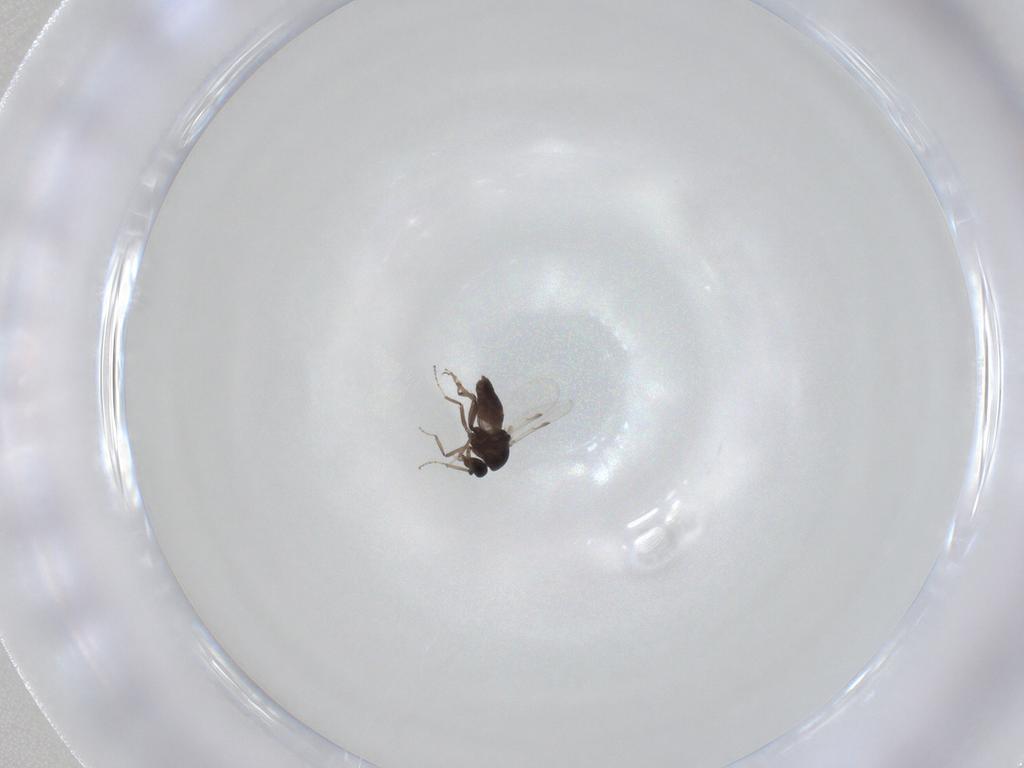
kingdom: Animalia
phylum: Arthropoda
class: Insecta
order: Diptera
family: Chironomidae
